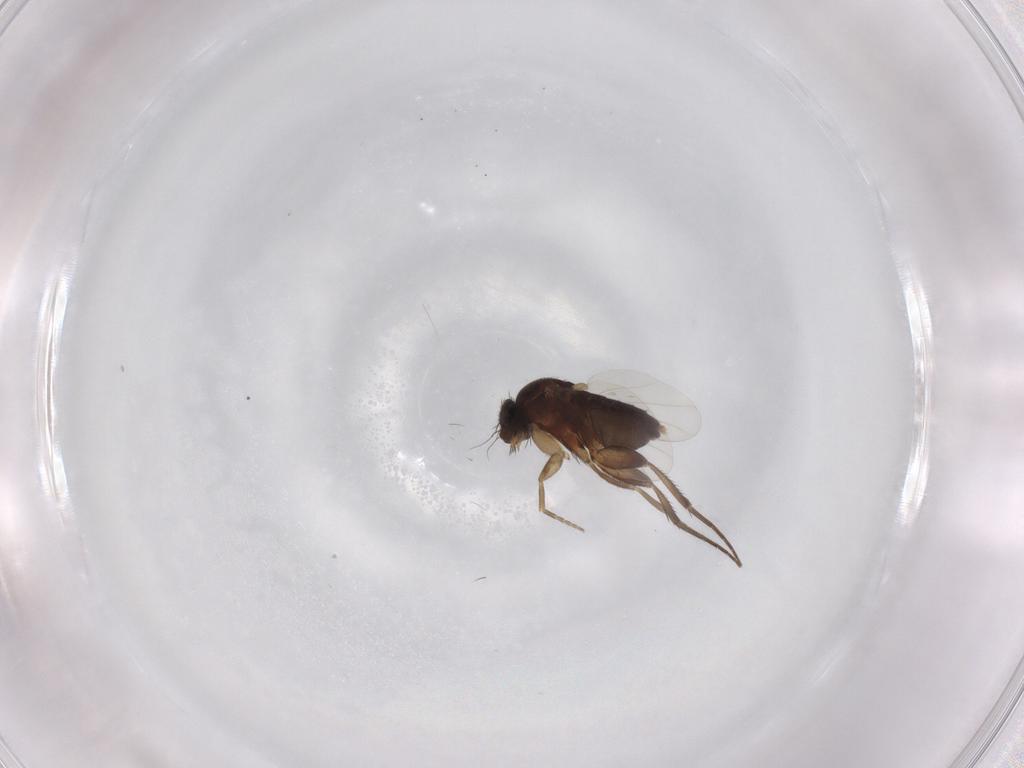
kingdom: Animalia
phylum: Arthropoda
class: Insecta
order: Diptera
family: Phoridae
